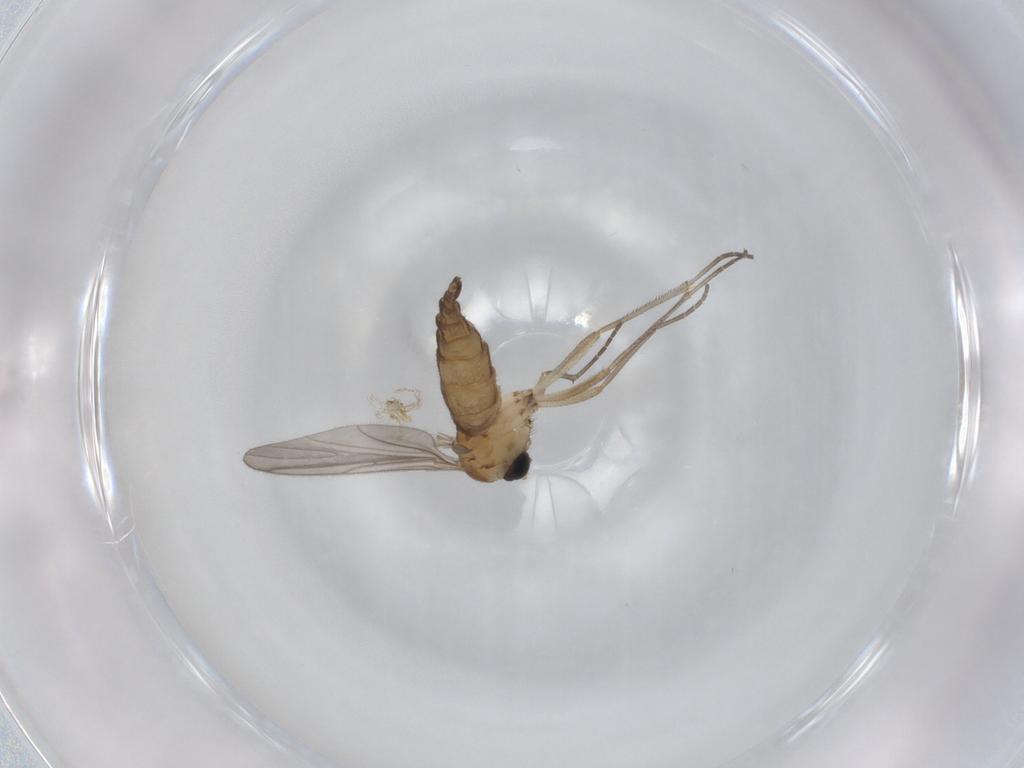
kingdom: Animalia
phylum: Arthropoda
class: Insecta
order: Diptera
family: Sciaridae
